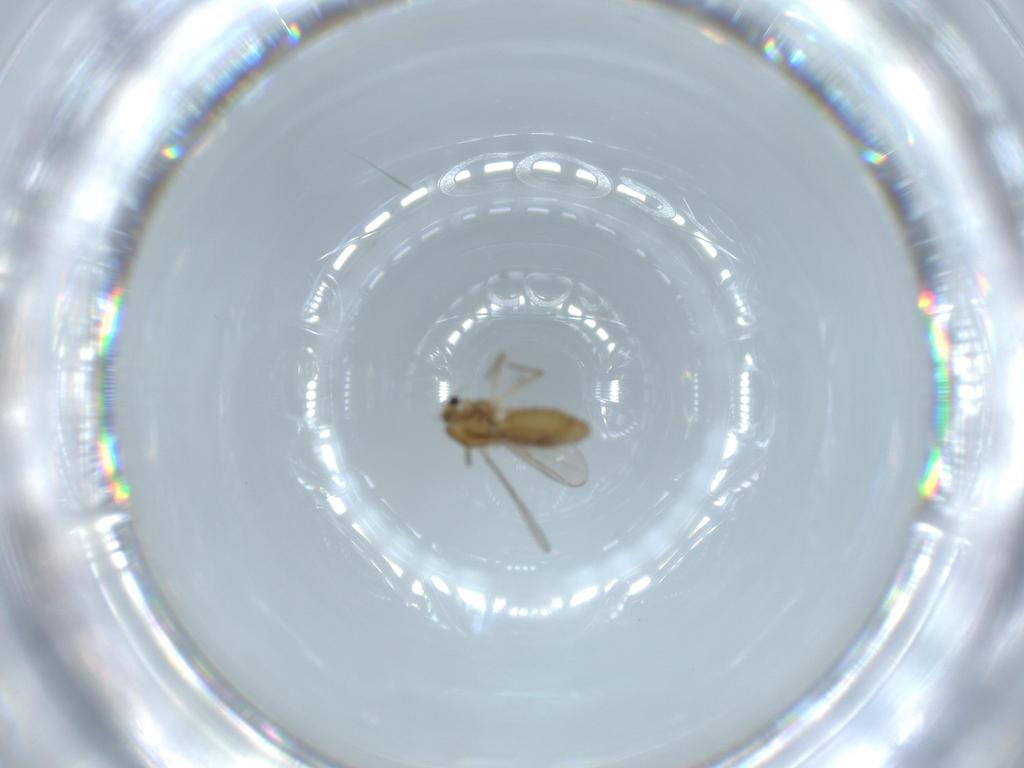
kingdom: Animalia
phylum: Arthropoda
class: Insecta
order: Diptera
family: Chironomidae
